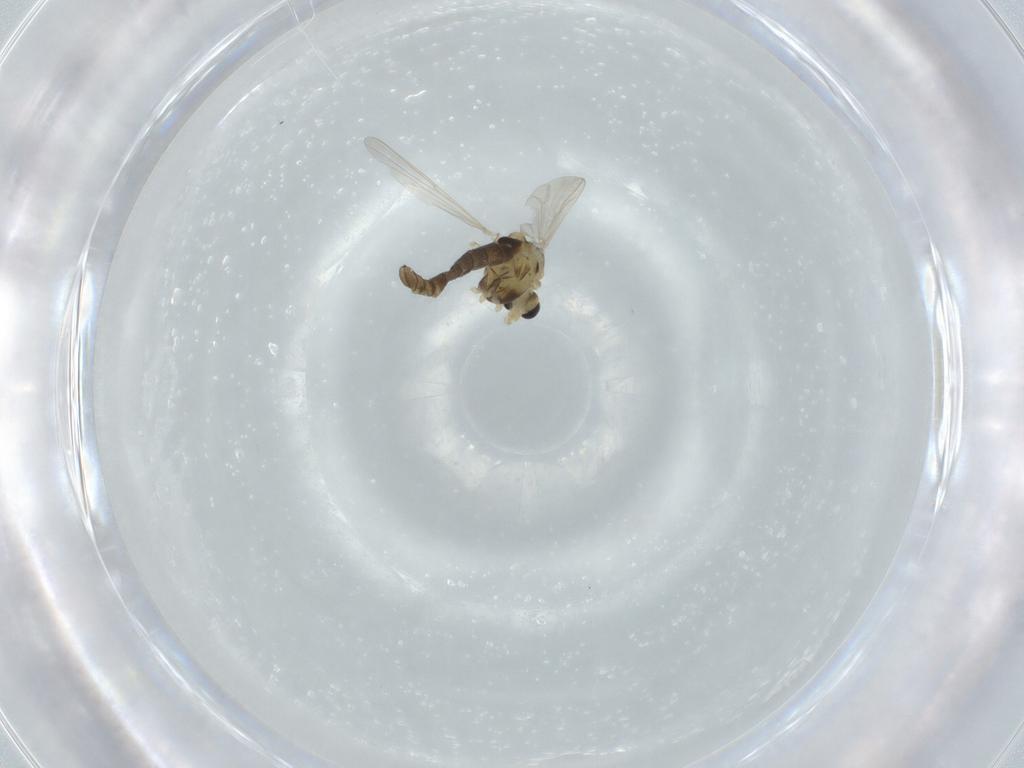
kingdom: Animalia
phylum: Arthropoda
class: Insecta
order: Diptera
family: Chironomidae
